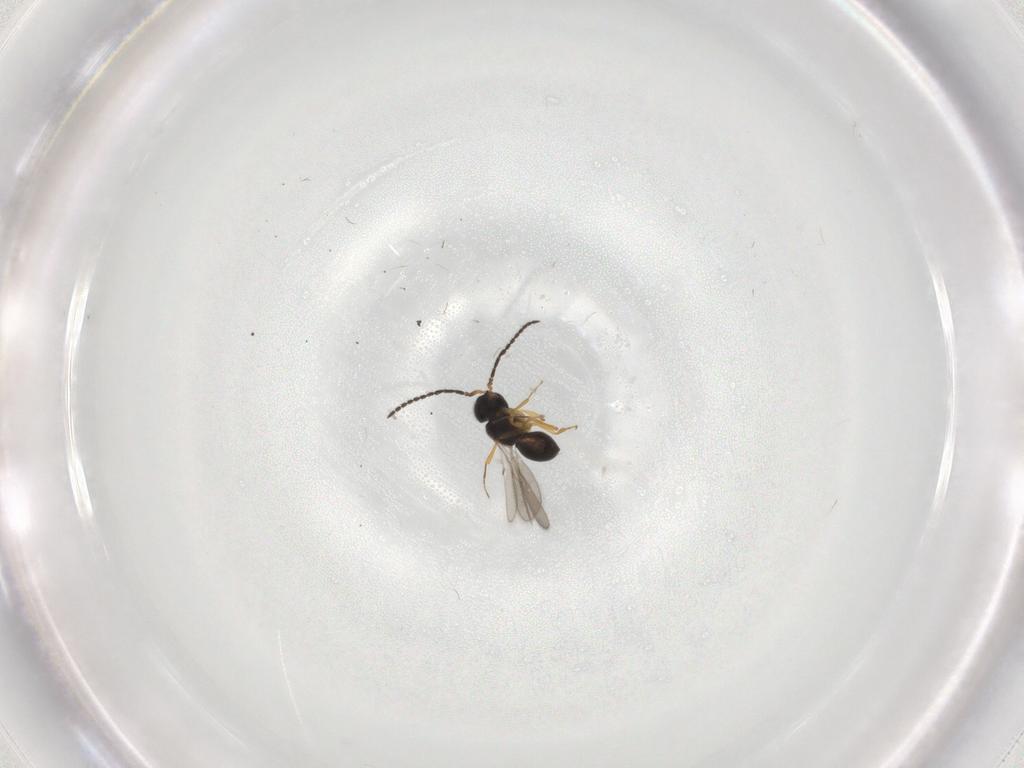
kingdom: Animalia
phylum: Arthropoda
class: Insecta
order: Hymenoptera
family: Scelionidae
